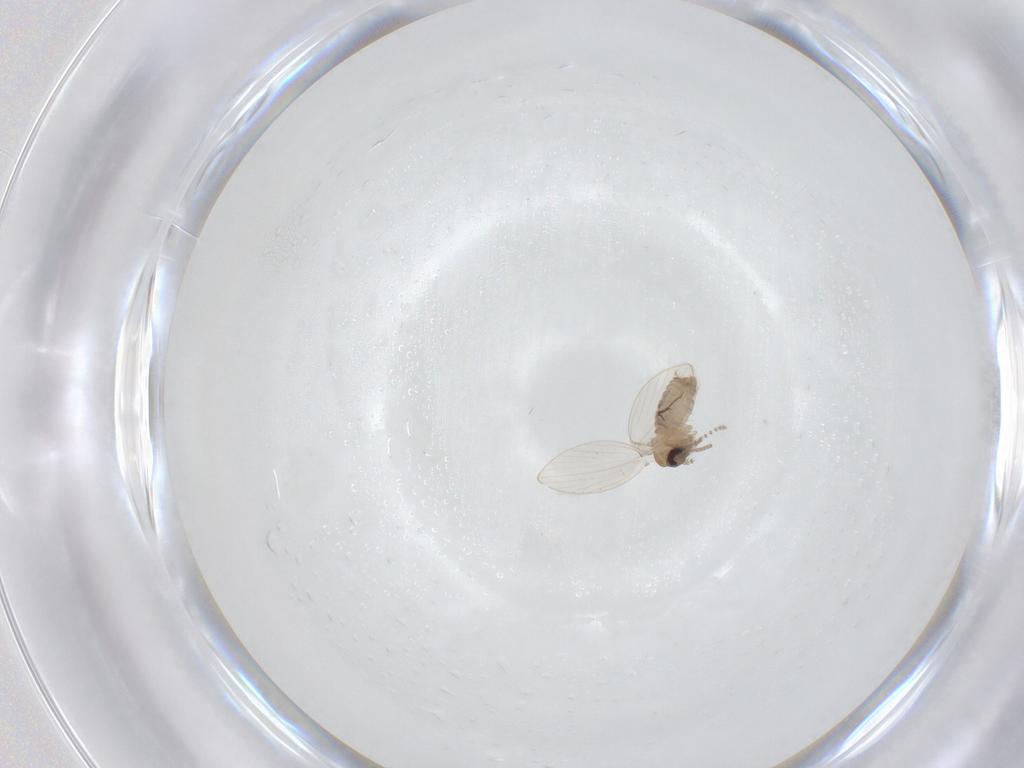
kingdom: Animalia
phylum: Arthropoda
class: Insecta
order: Diptera
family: Psychodidae
